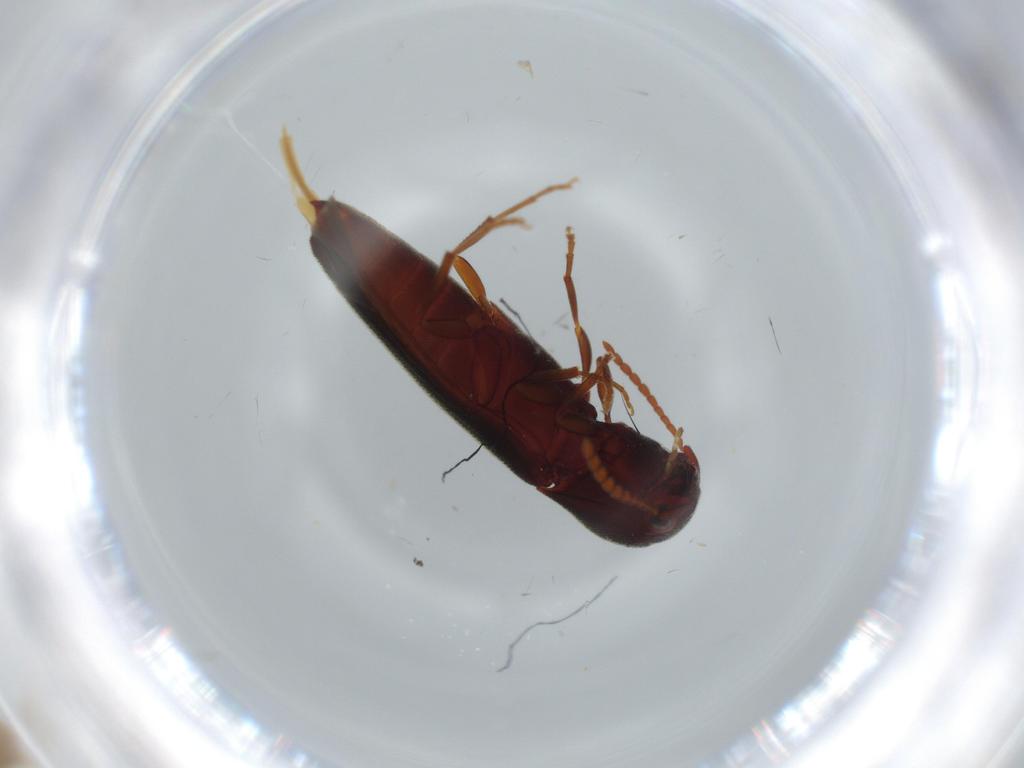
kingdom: Animalia
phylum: Arthropoda
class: Insecta
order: Coleoptera
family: Eucnemidae
